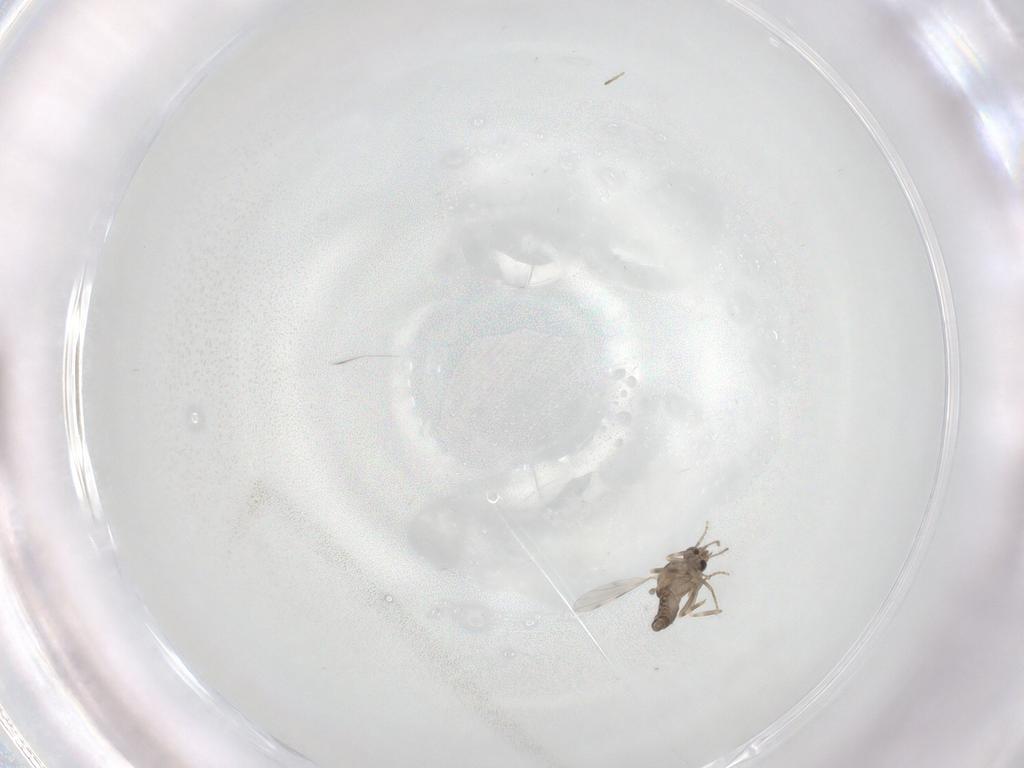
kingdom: Animalia
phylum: Arthropoda
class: Insecta
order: Diptera
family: Ceratopogonidae
